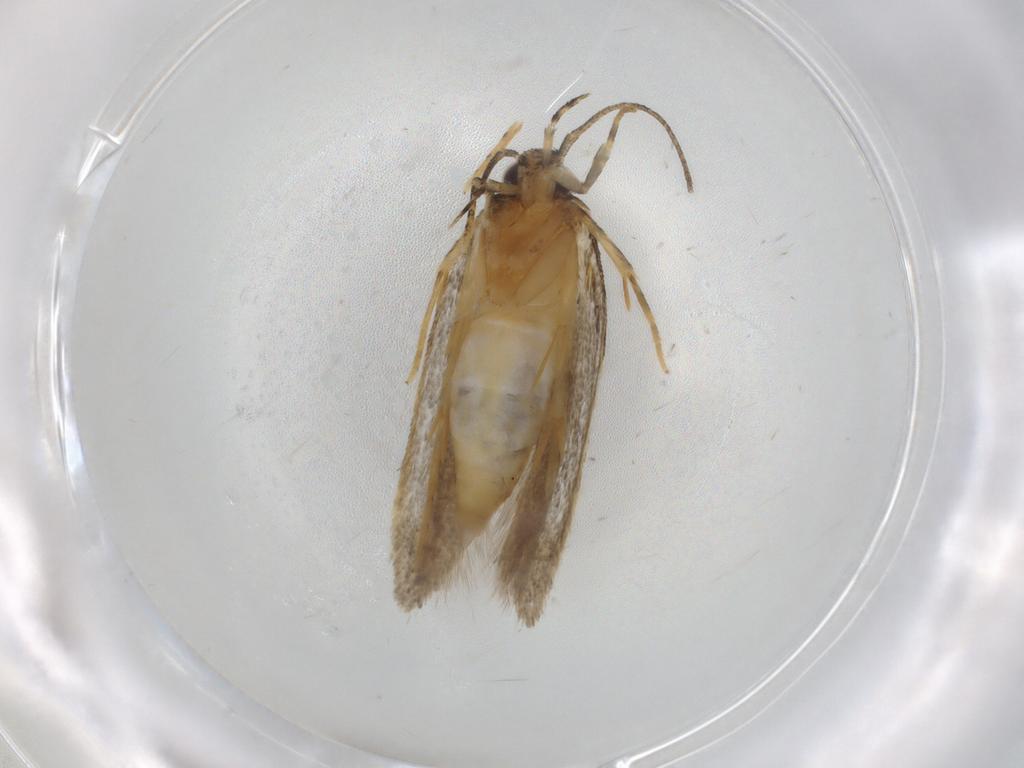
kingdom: Animalia
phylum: Arthropoda
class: Insecta
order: Lepidoptera
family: Autostichidae
